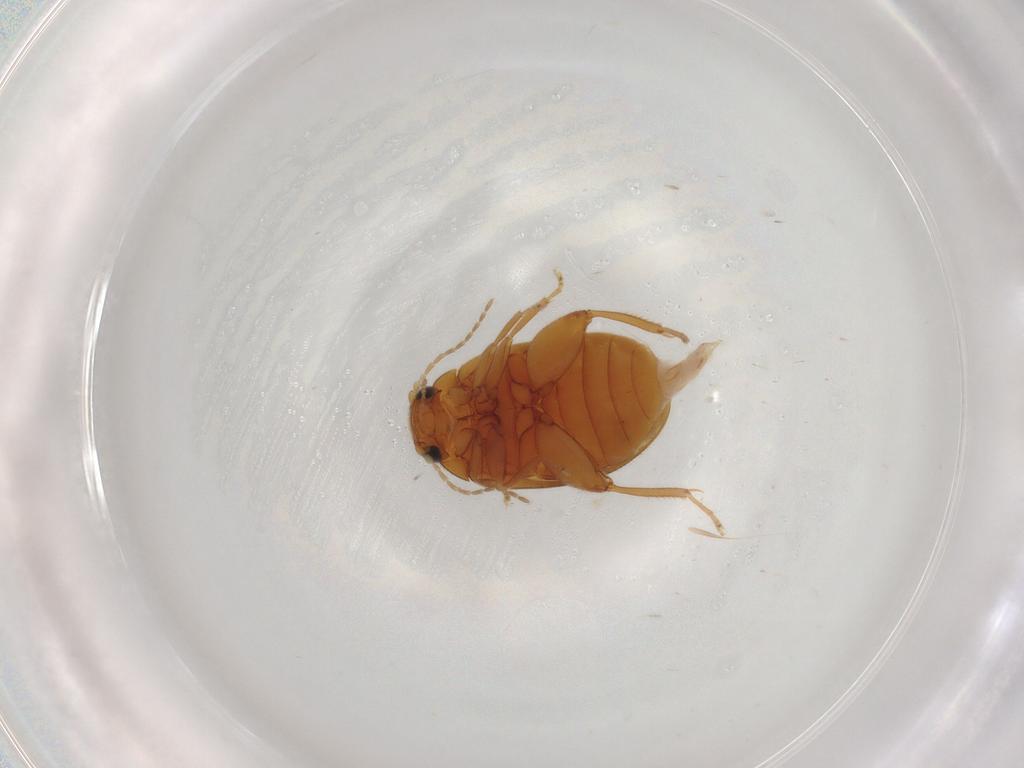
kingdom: Animalia
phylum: Arthropoda
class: Insecta
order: Coleoptera
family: Scirtidae
